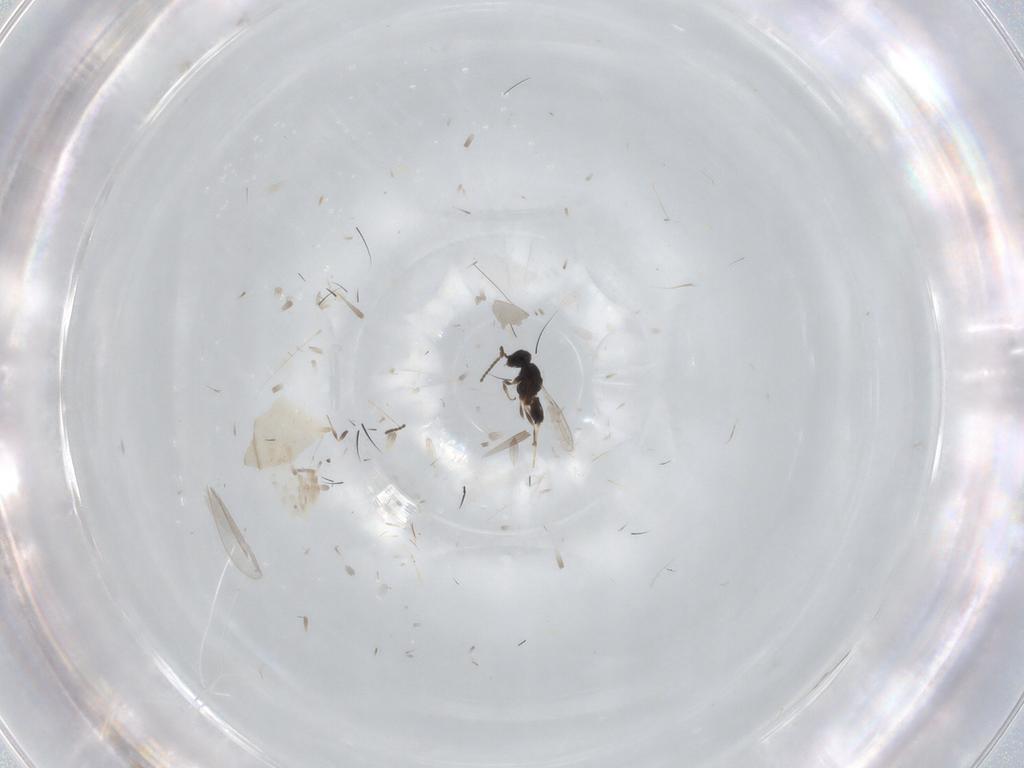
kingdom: Animalia
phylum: Arthropoda
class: Insecta
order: Hymenoptera
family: Scelionidae
